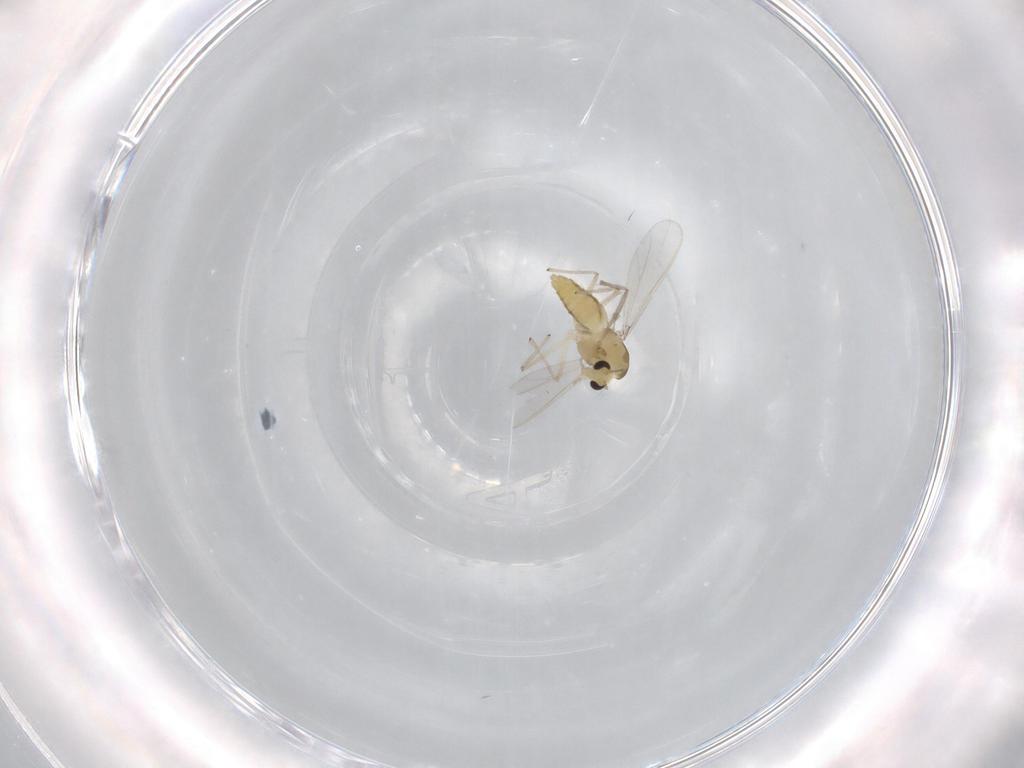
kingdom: Animalia
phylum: Arthropoda
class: Insecta
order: Diptera
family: Chironomidae
